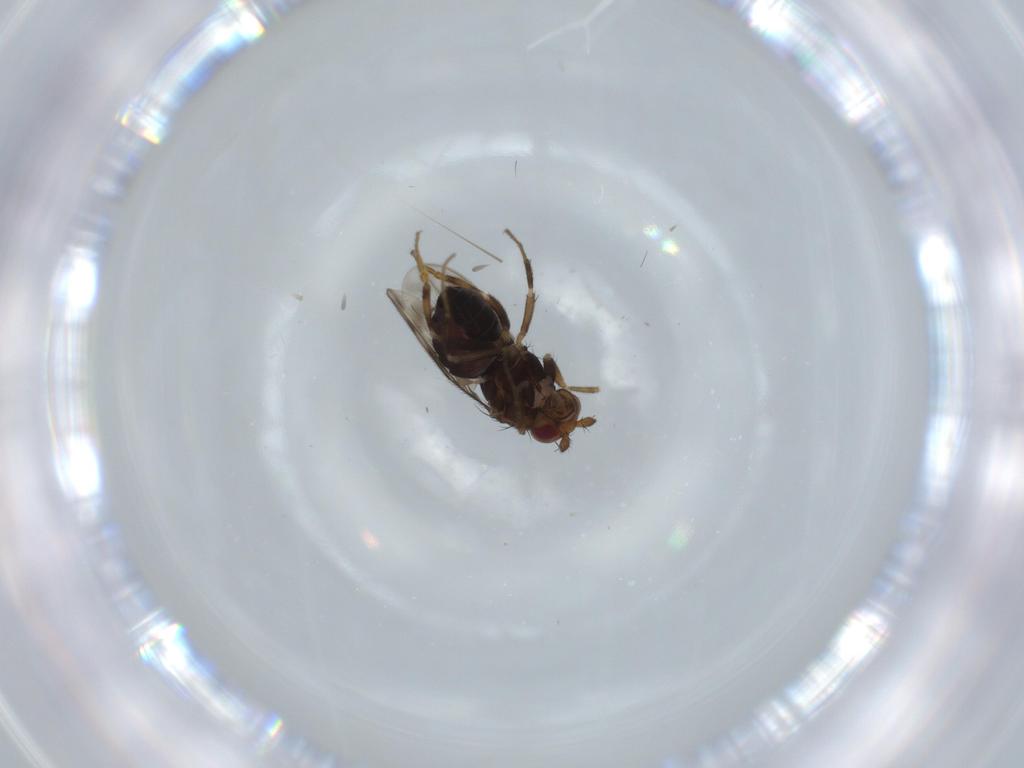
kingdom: Animalia
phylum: Arthropoda
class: Insecta
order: Diptera
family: Sphaeroceridae
